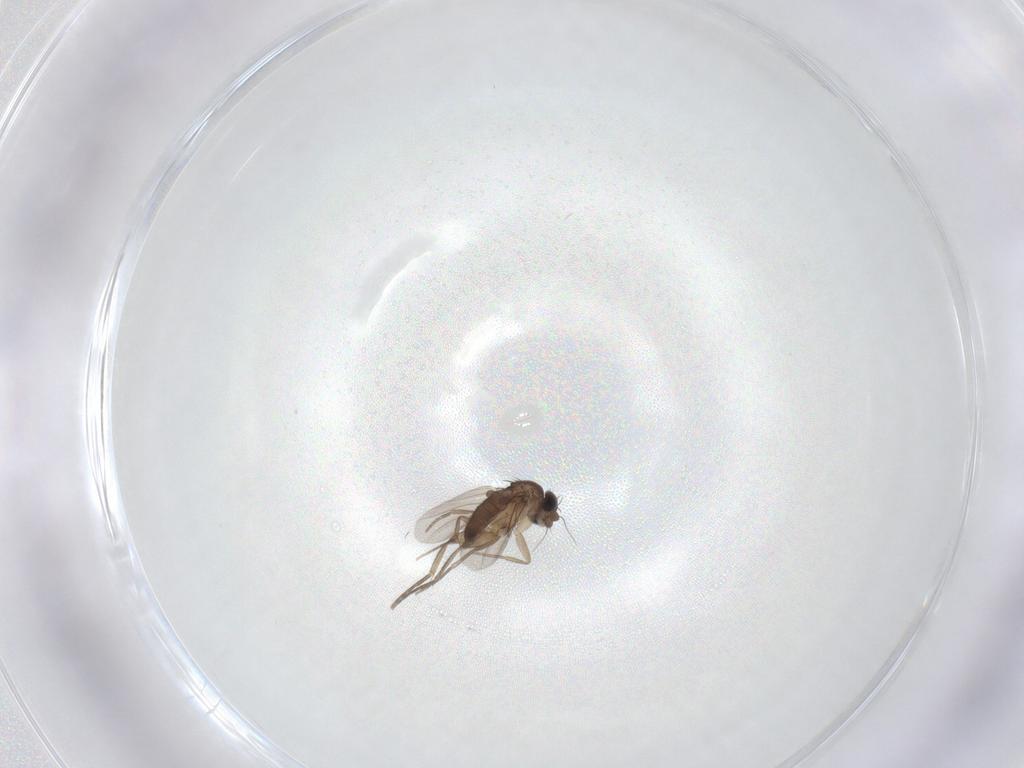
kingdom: Animalia
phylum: Arthropoda
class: Insecta
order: Diptera
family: Phoridae
